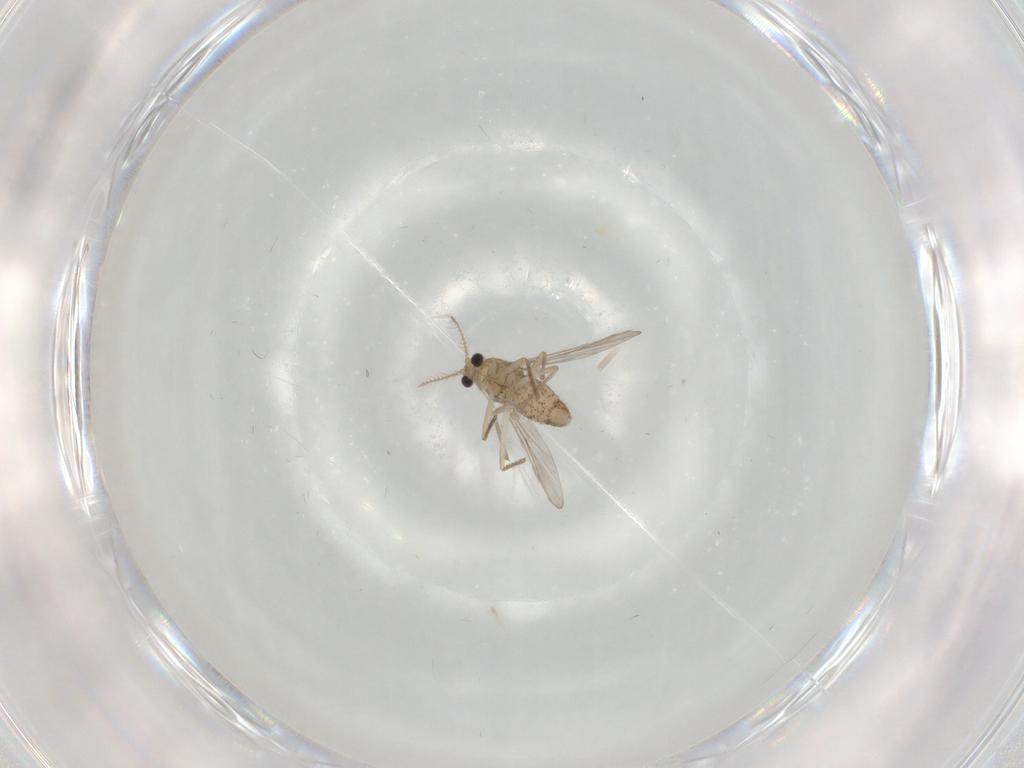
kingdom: Animalia
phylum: Arthropoda
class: Insecta
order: Diptera
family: Chironomidae
